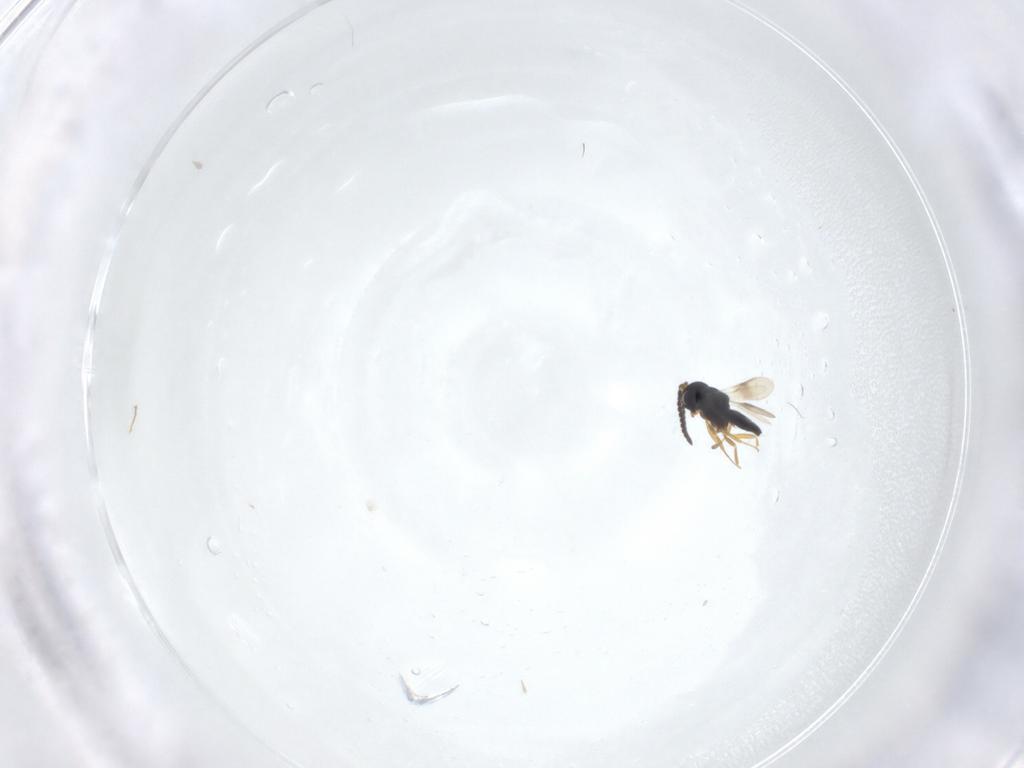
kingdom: Animalia
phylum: Arthropoda
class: Insecta
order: Hymenoptera
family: Scelionidae
